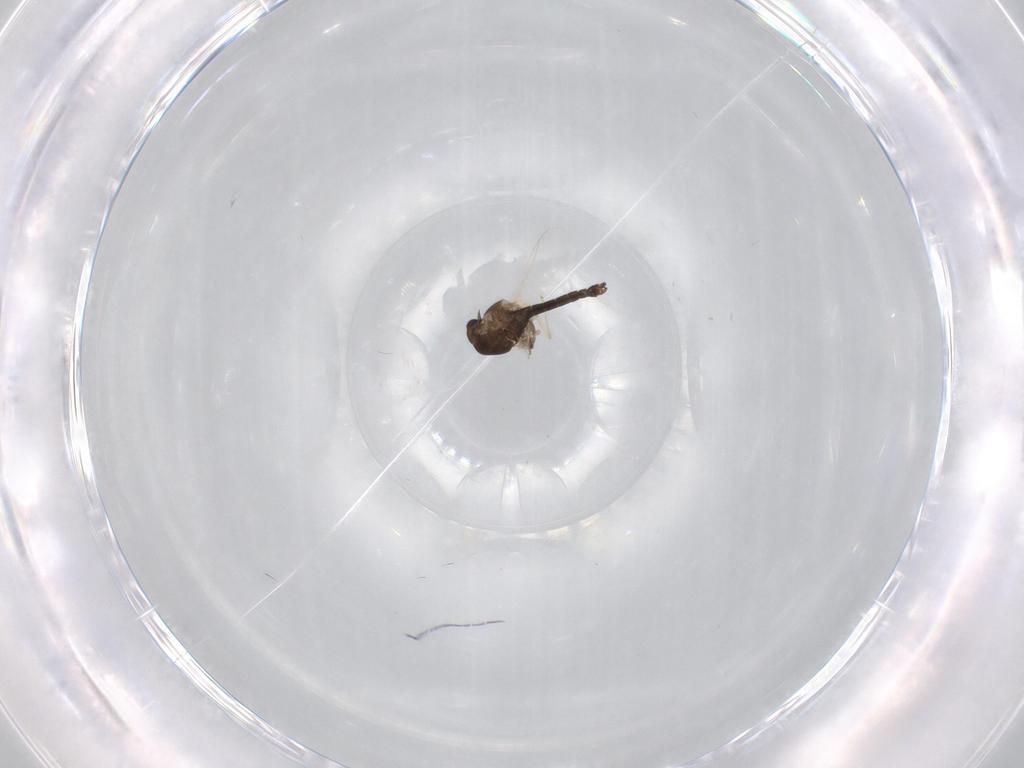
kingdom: Animalia
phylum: Arthropoda
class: Insecta
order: Diptera
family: Chironomidae
